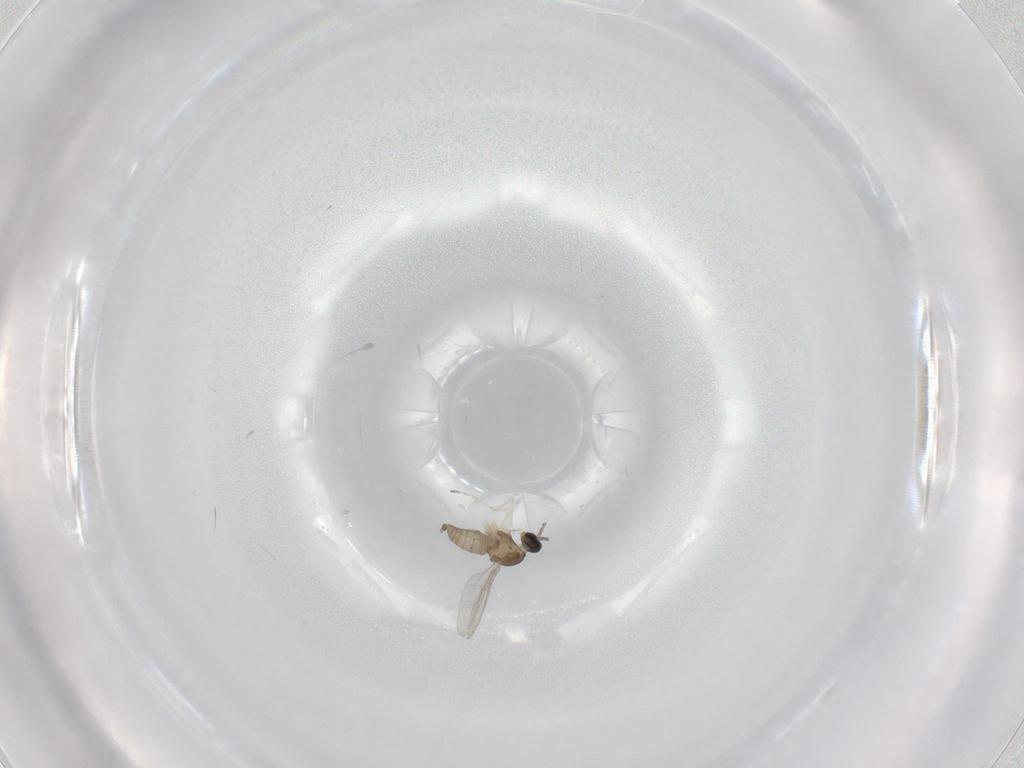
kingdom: Animalia
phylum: Arthropoda
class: Insecta
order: Diptera
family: Cecidomyiidae
